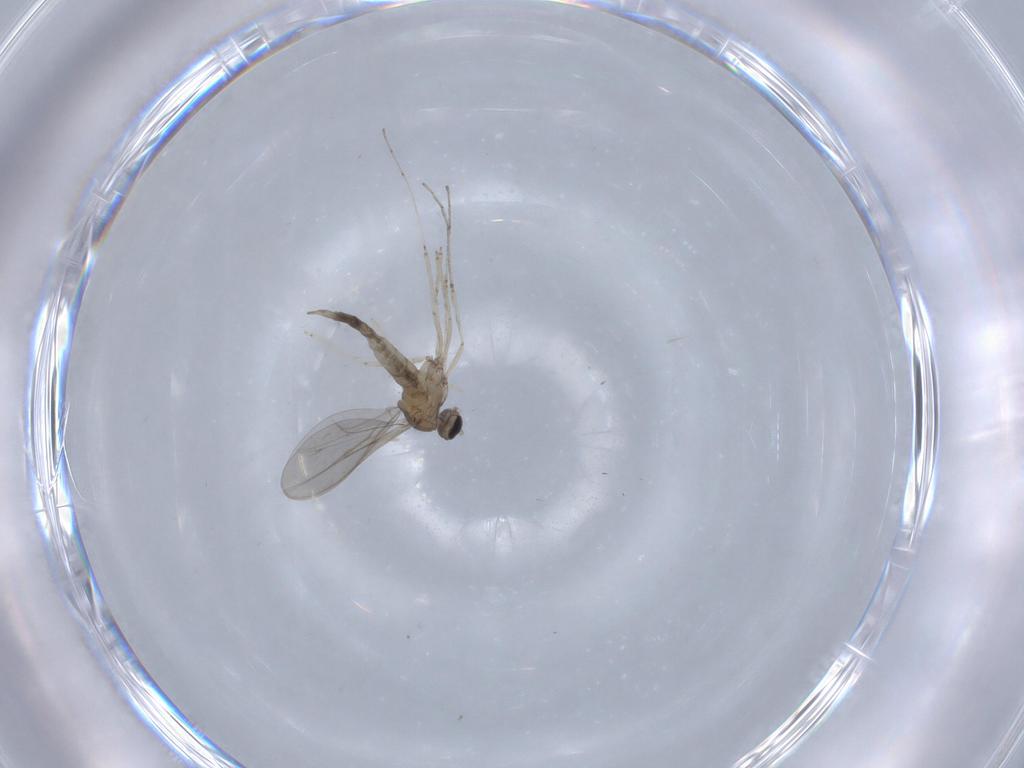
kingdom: Animalia
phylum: Arthropoda
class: Insecta
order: Diptera
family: Cecidomyiidae
